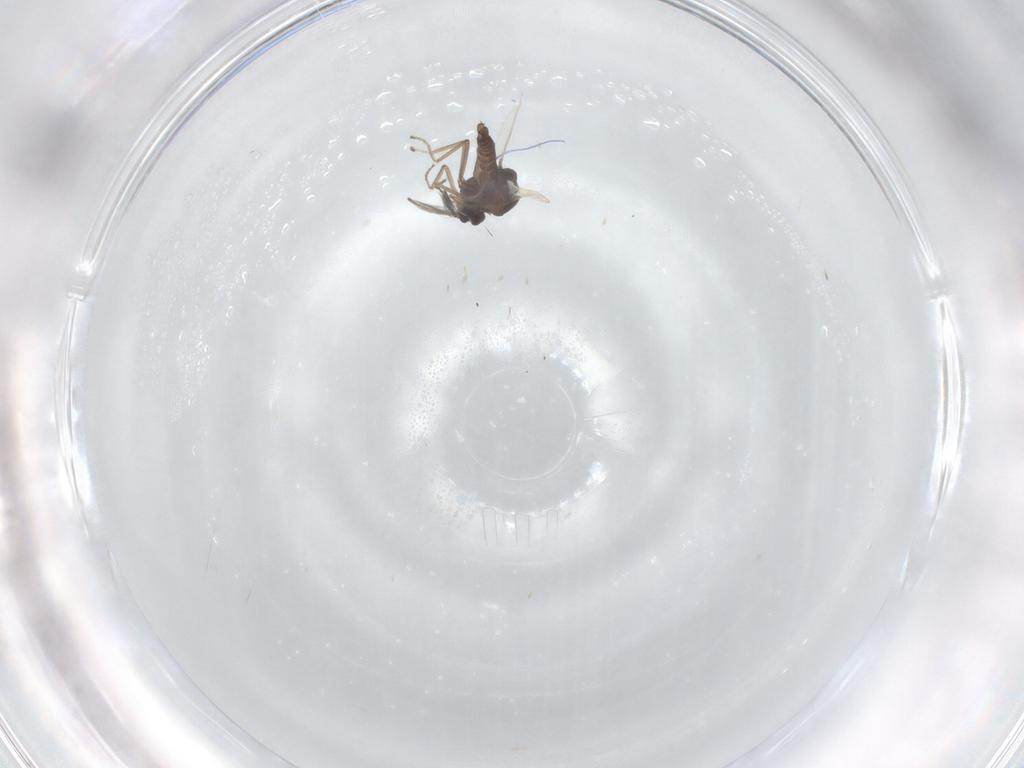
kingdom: Animalia
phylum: Arthropoda
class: Insecta
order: Diptera
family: Ceratopogonidae
